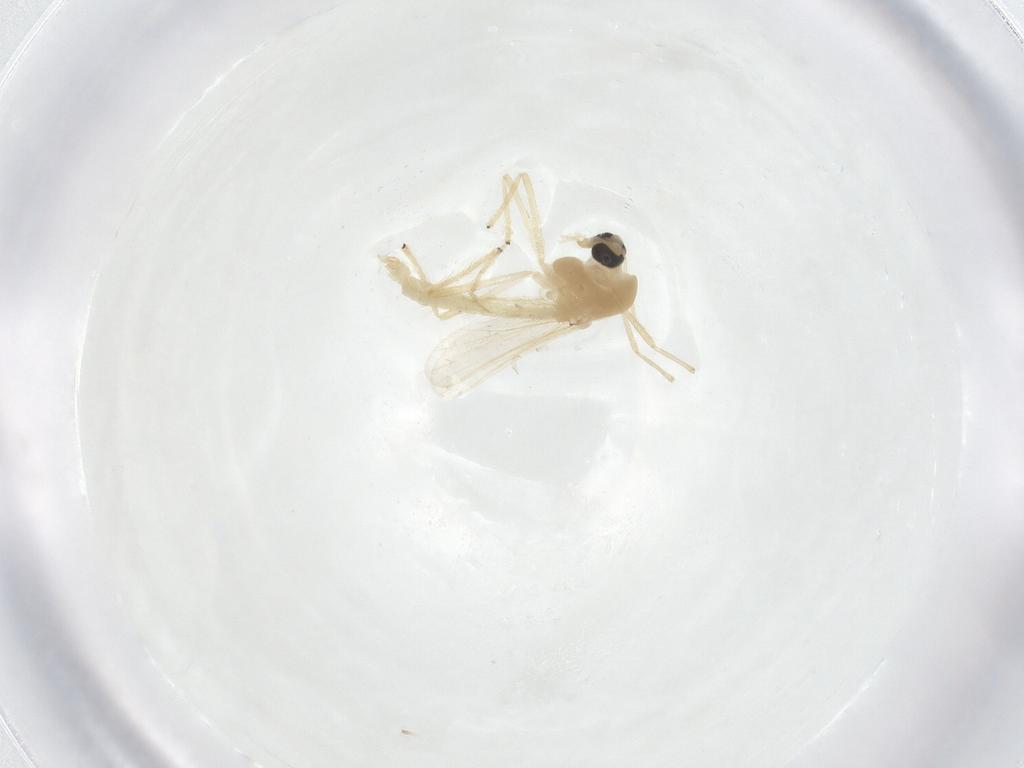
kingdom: Animalia
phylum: Arthropoda
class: Insecta
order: Diptera
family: Chironomidae
